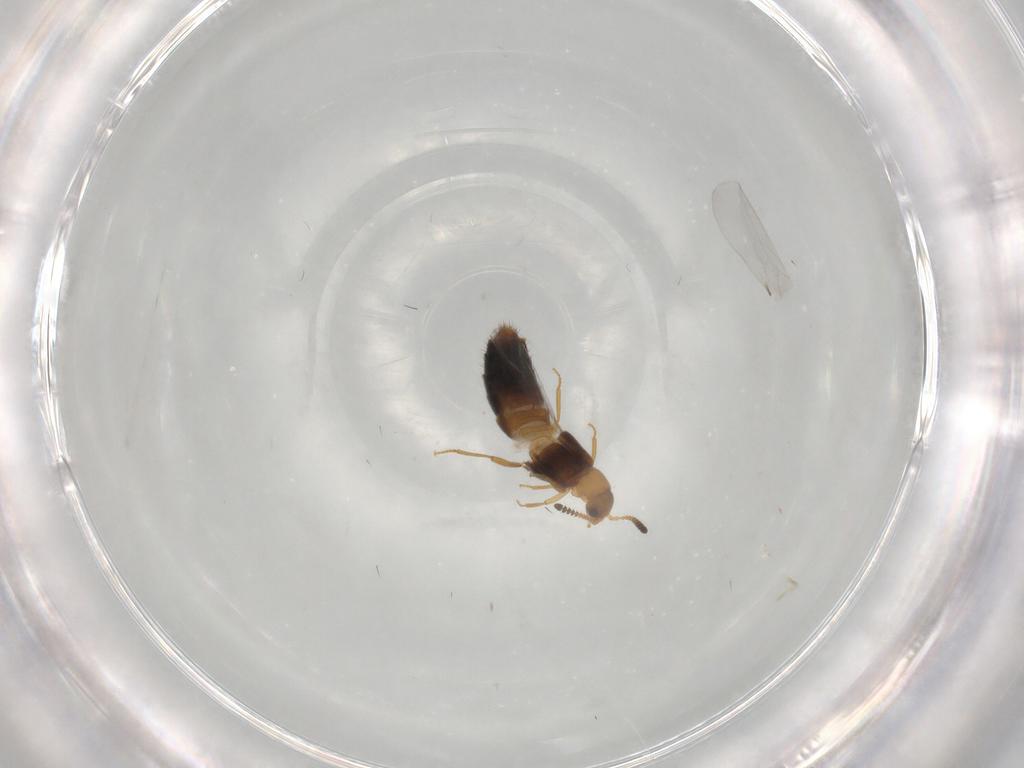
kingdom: Animalia
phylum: Arthropoda
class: Insecta
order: Coleoptera
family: Staphylinidae
